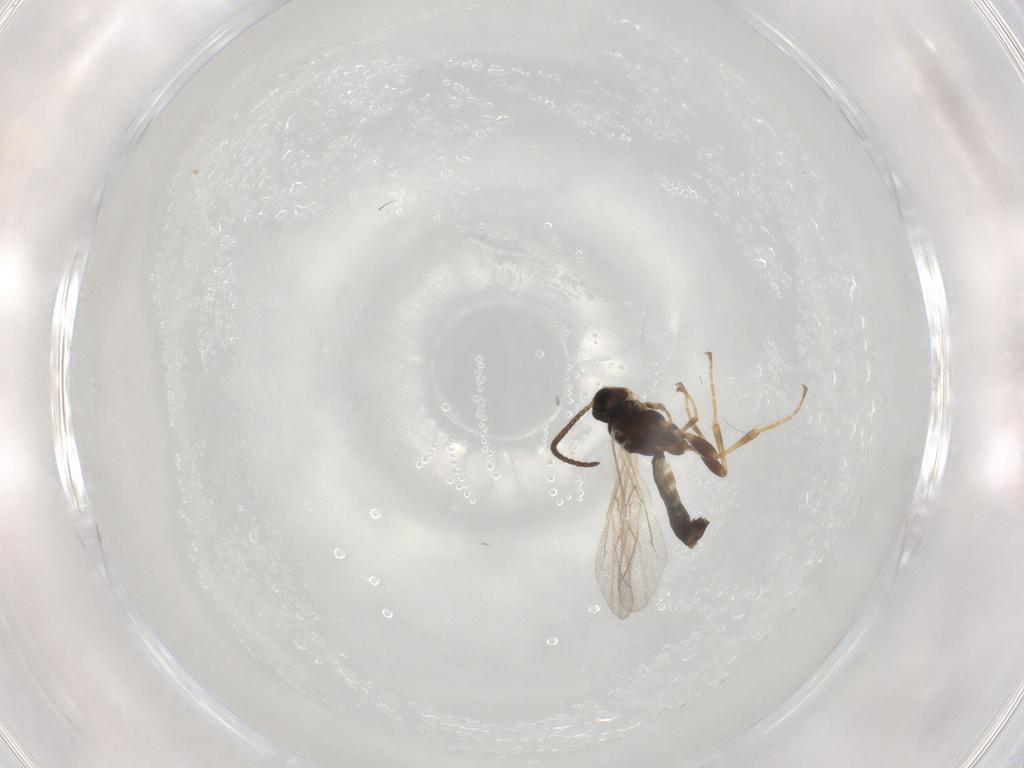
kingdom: Animalia
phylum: Arthropoda
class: Insecta
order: Hymenoptera
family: Ichneumonidae
